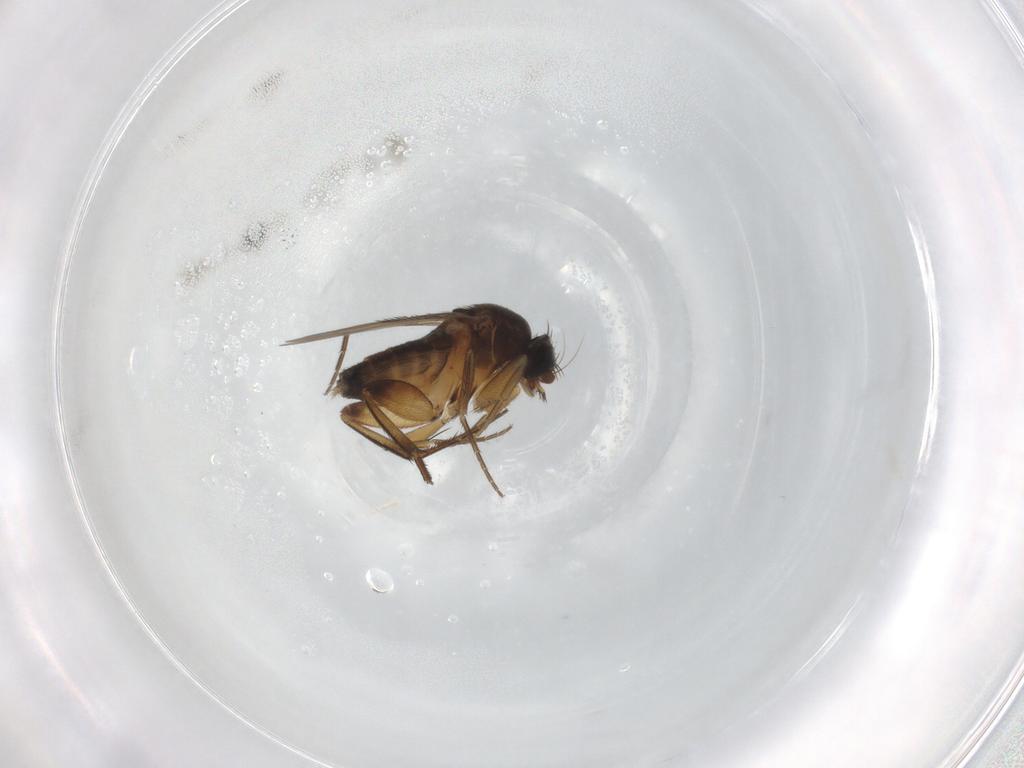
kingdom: Animalia
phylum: Arthropoda
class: Insecta
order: Diptera
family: Phoridae
